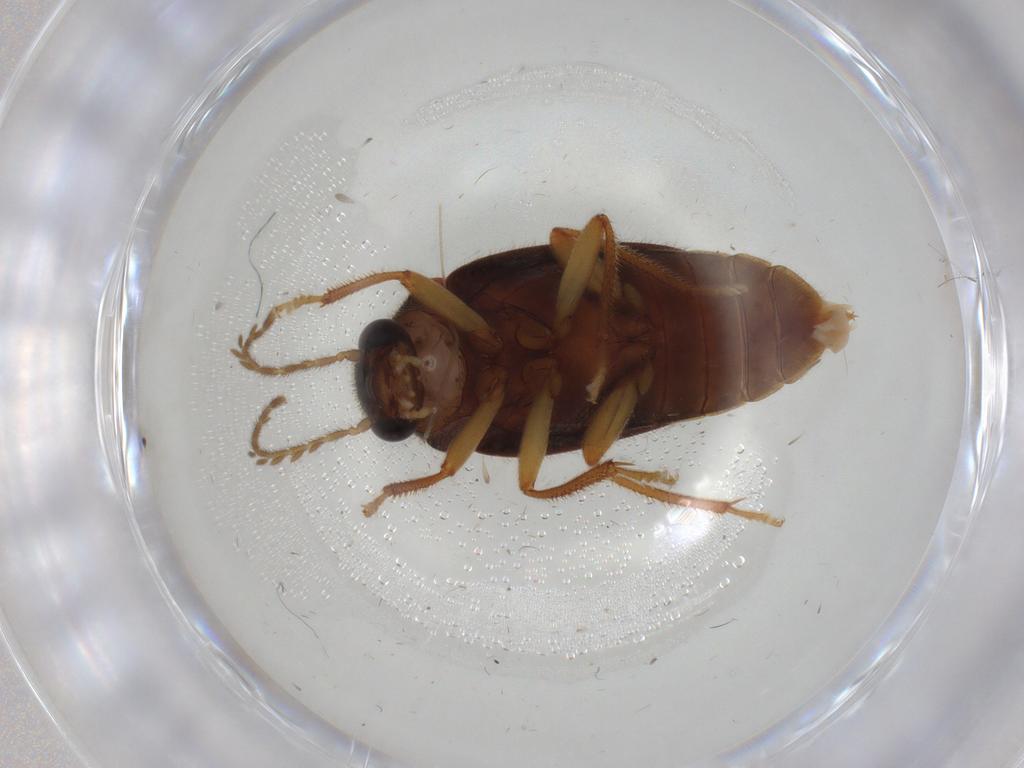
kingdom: Animalia
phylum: Arthropoda
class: Insecta
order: Coleoptera
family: Ptilodactylidae
